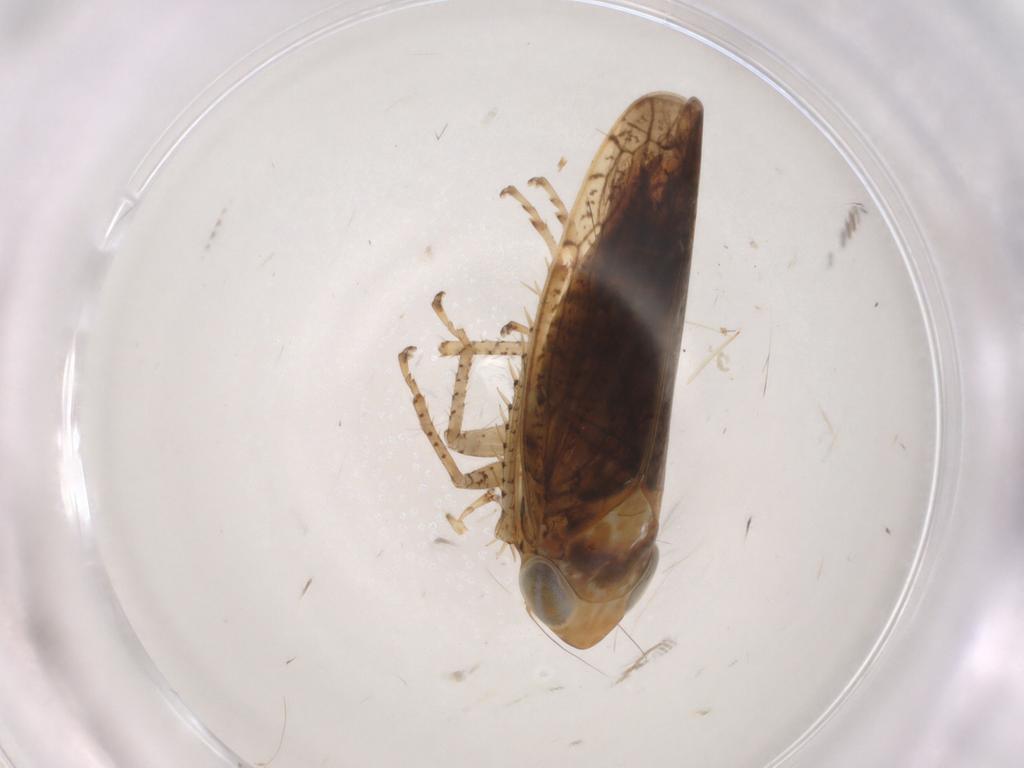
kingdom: Animalia
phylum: Arthropoda
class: Insecta
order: Hemiptera
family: Cicadellidae
